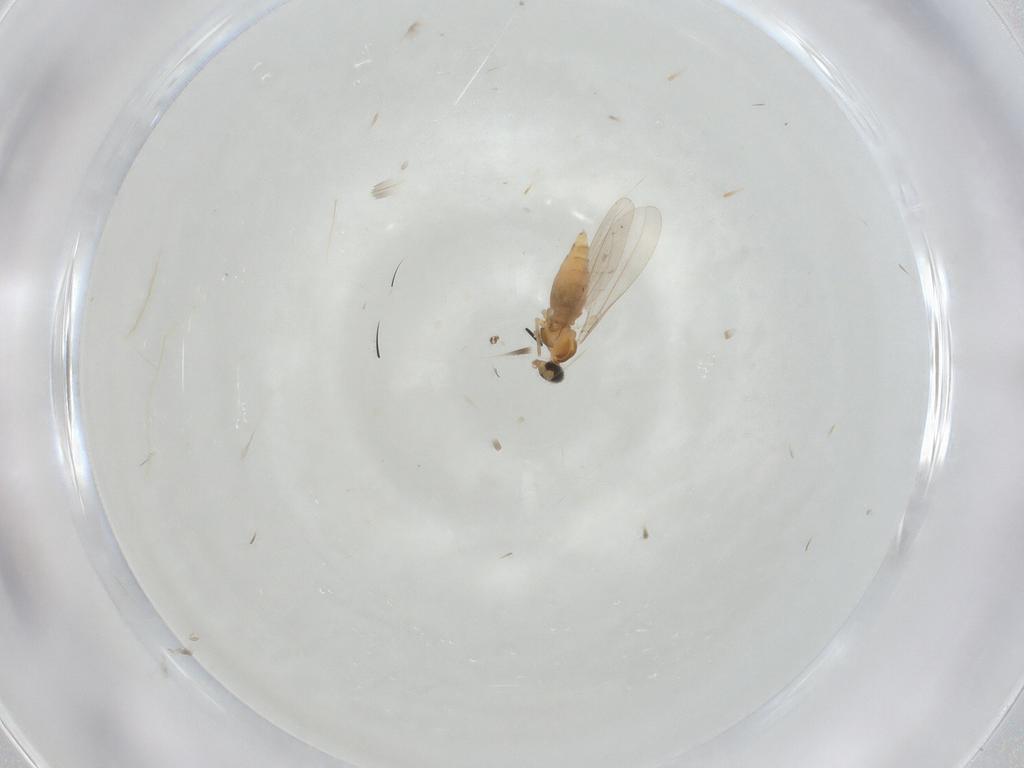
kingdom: Animalia
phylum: Arthropoda
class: Insecta
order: Diptera
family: Cecidomyiidae
